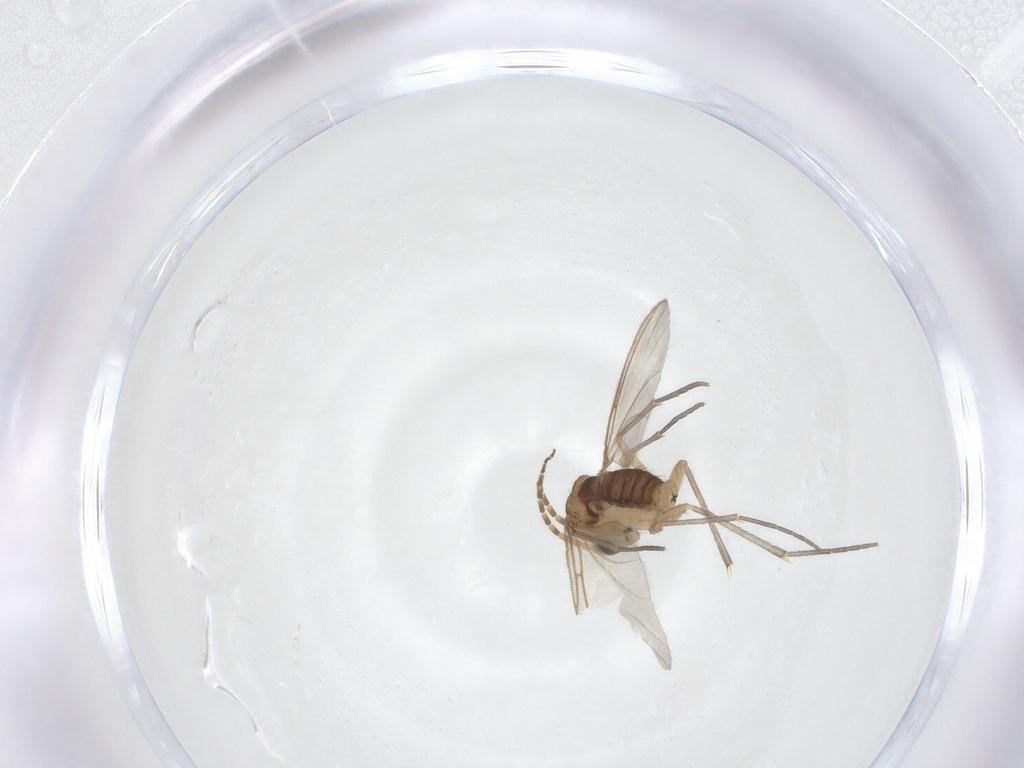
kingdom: Animalia
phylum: Arthropoda
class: Insecta
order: Diptera
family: Sciaridae
